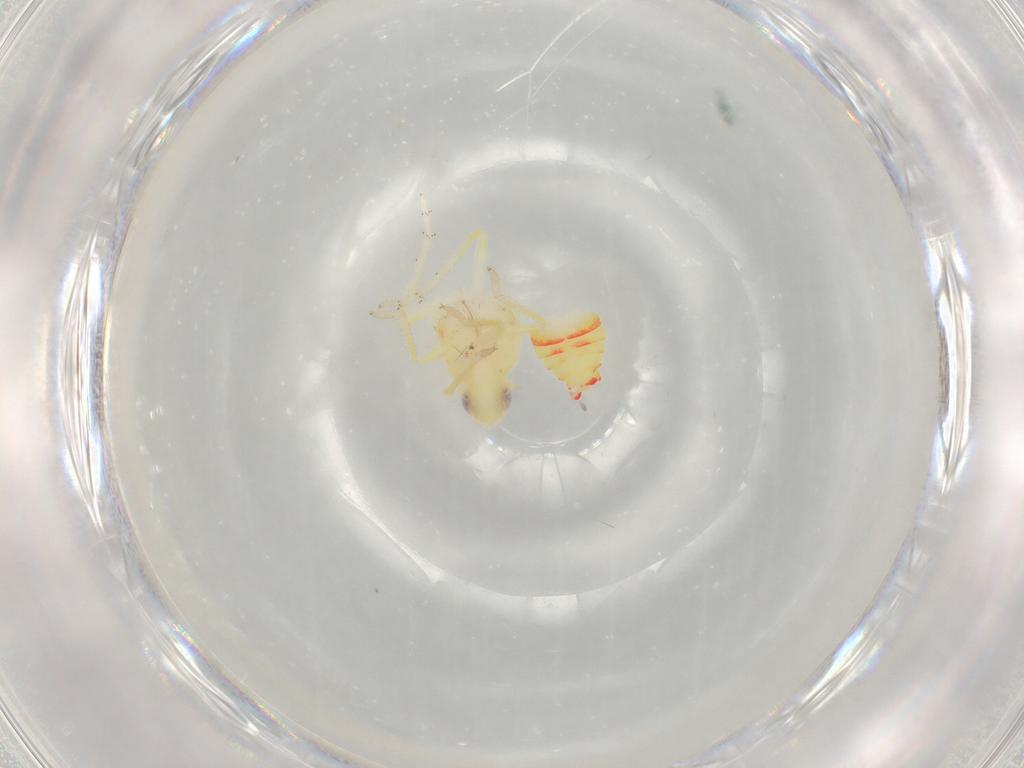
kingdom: Animalia
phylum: Arthropoda
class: Insecta
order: Hemiptera
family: Tropiduchidae
